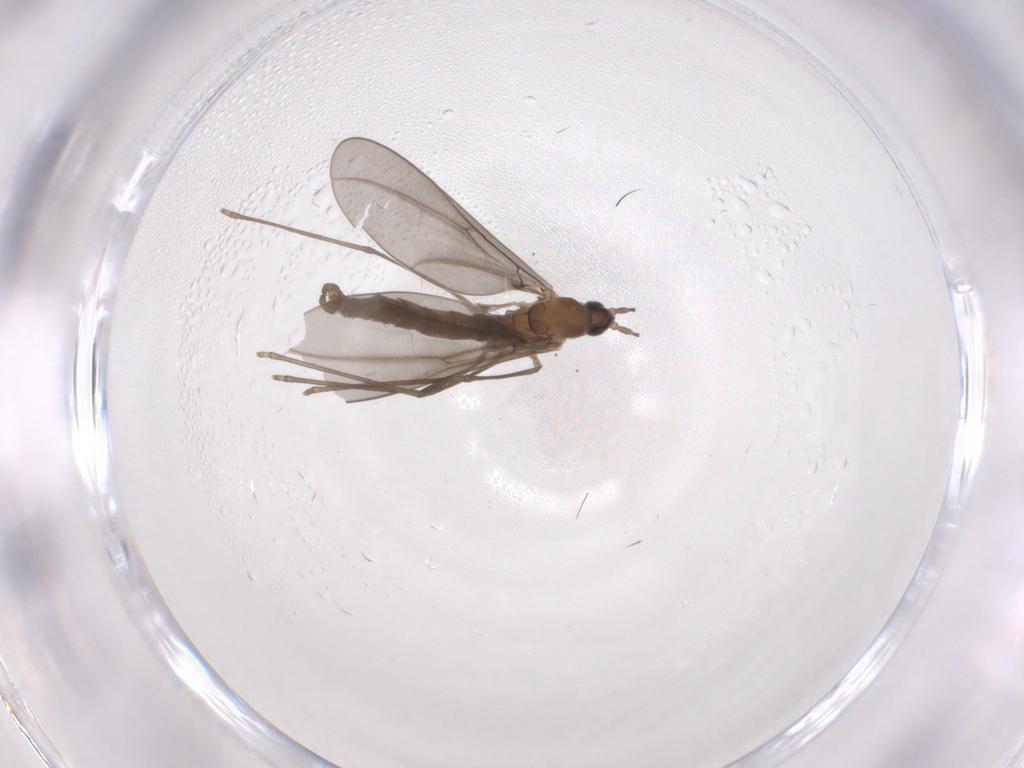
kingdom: Animalia
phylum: Arthropoda
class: Insecta
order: Diptera
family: Cecidomyiidae
